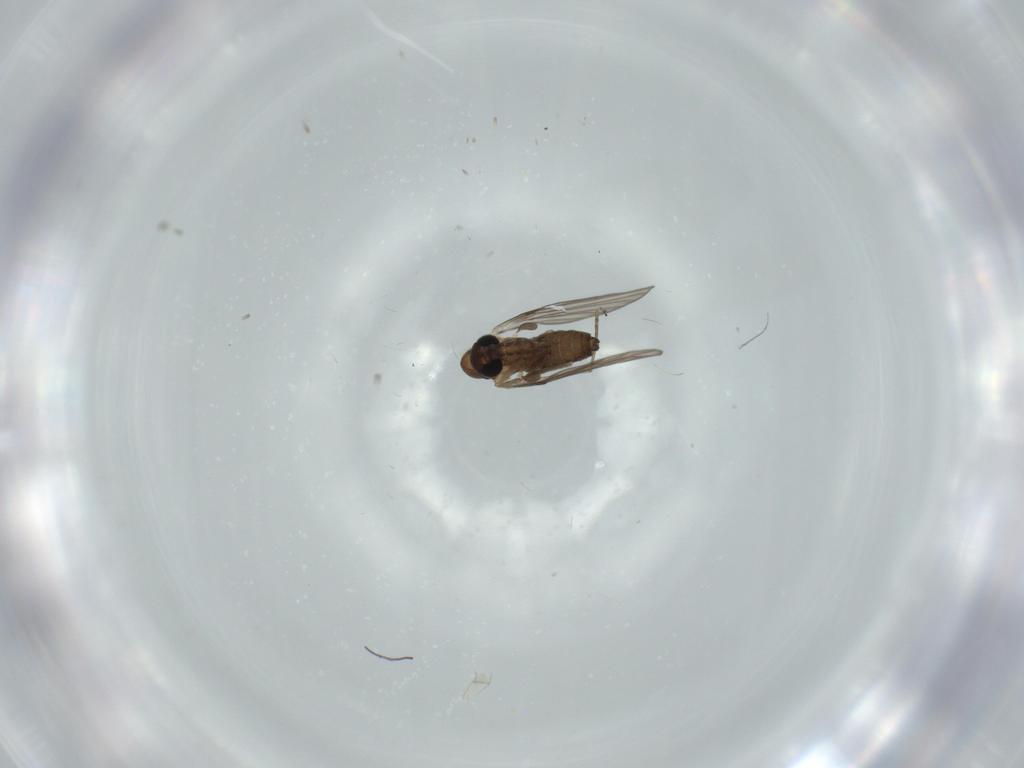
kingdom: Animalia
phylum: Arthropoda
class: Insecta
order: Diptera
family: Psychodidae
